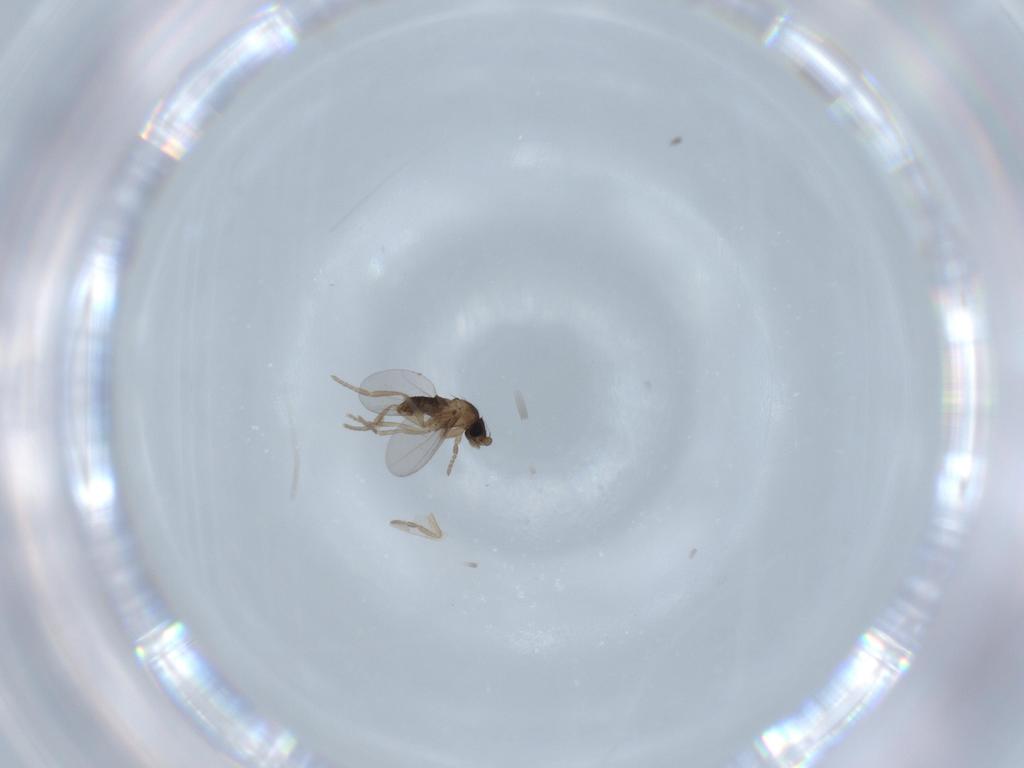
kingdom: Animalia
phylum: Arthropoda
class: Insecta
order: Diptera
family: Phoridae
